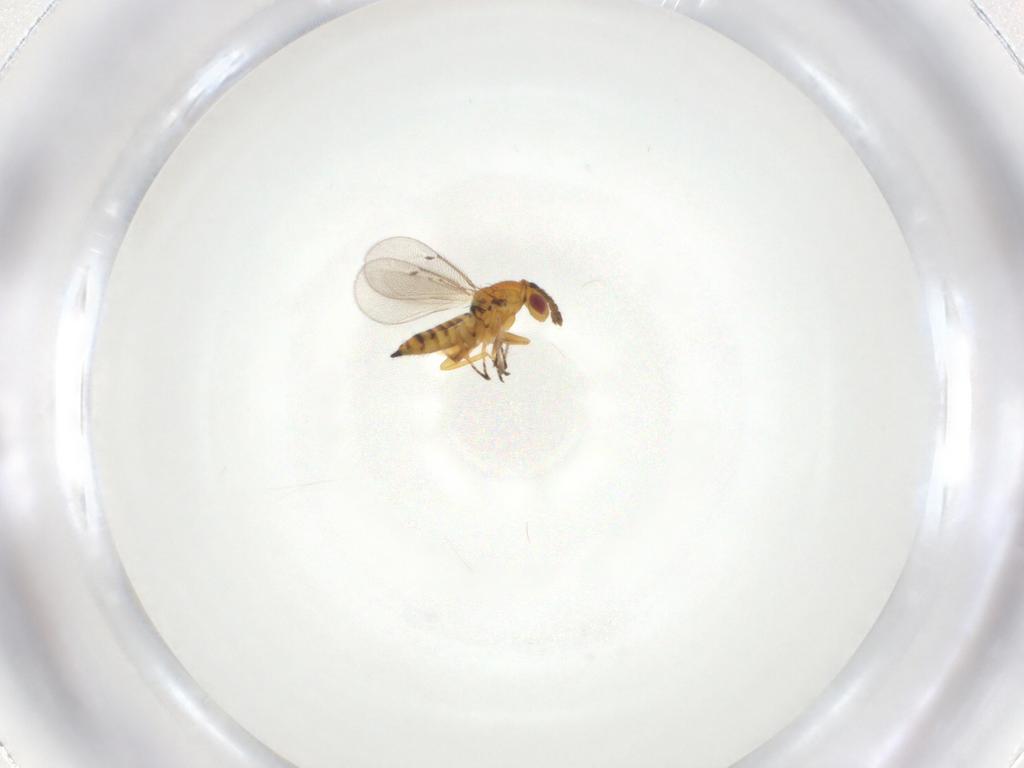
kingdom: Animalia
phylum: Arthropoda
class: Insecta
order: Hymenoptera
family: Eulophidae
